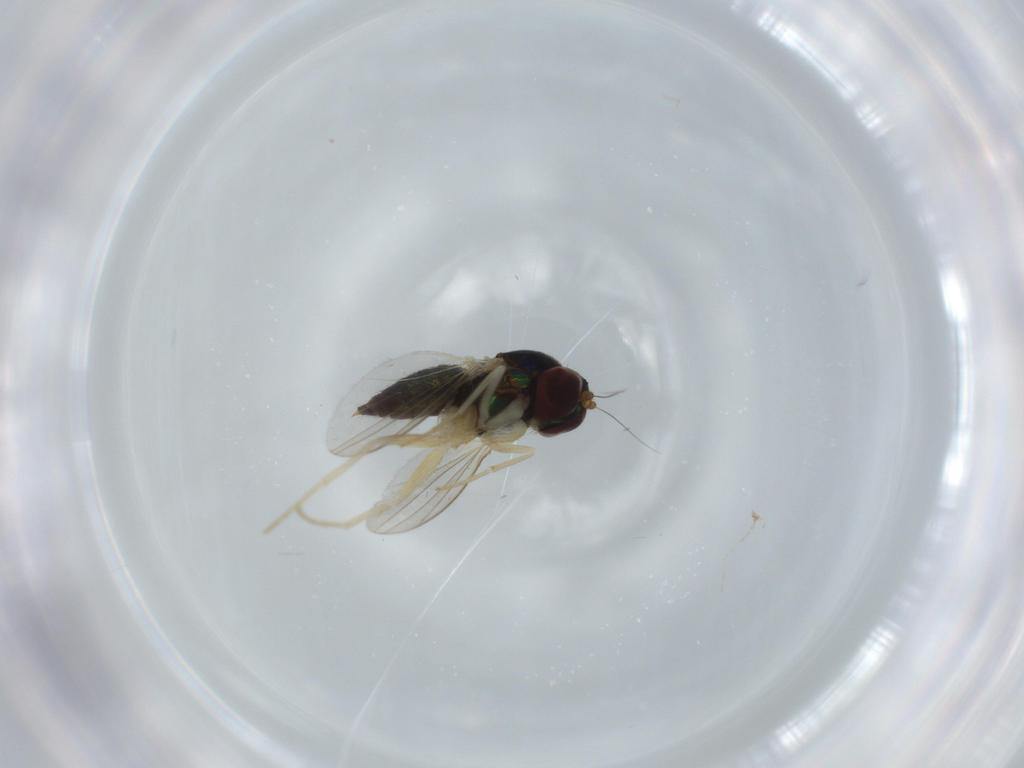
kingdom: Animalia
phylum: Arthropoda
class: Insecta
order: Diptera
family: Dolichopodidae
